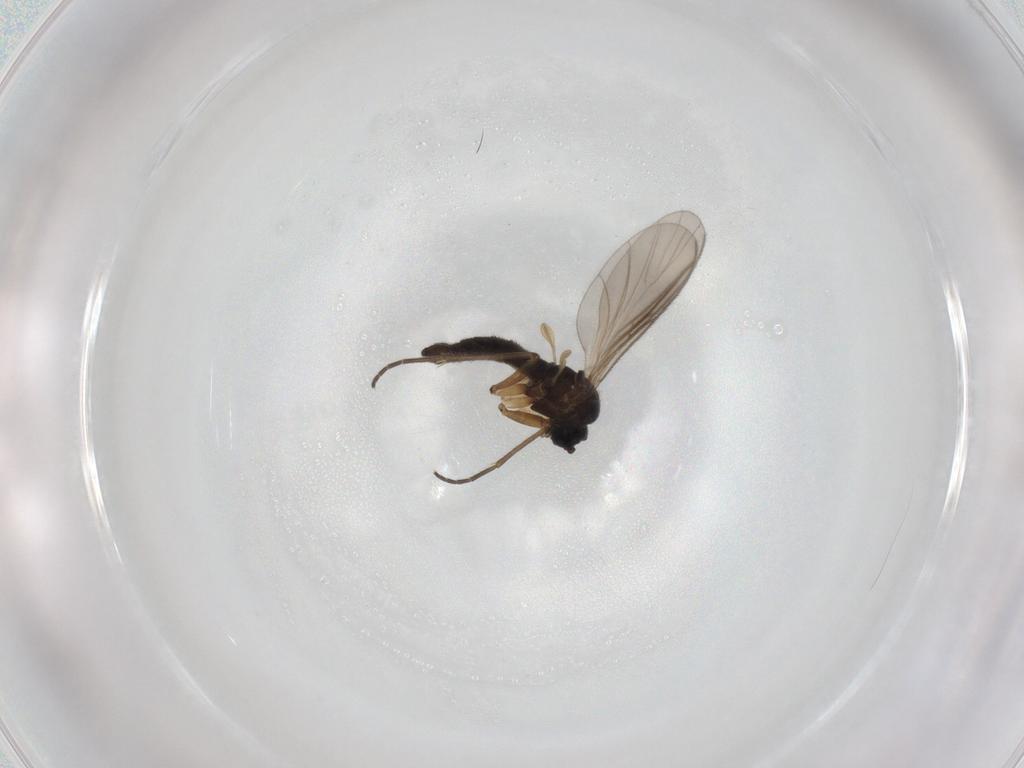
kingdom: Animalia
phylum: Arthropoda
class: Insecta
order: Diptera
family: Sciaridae
